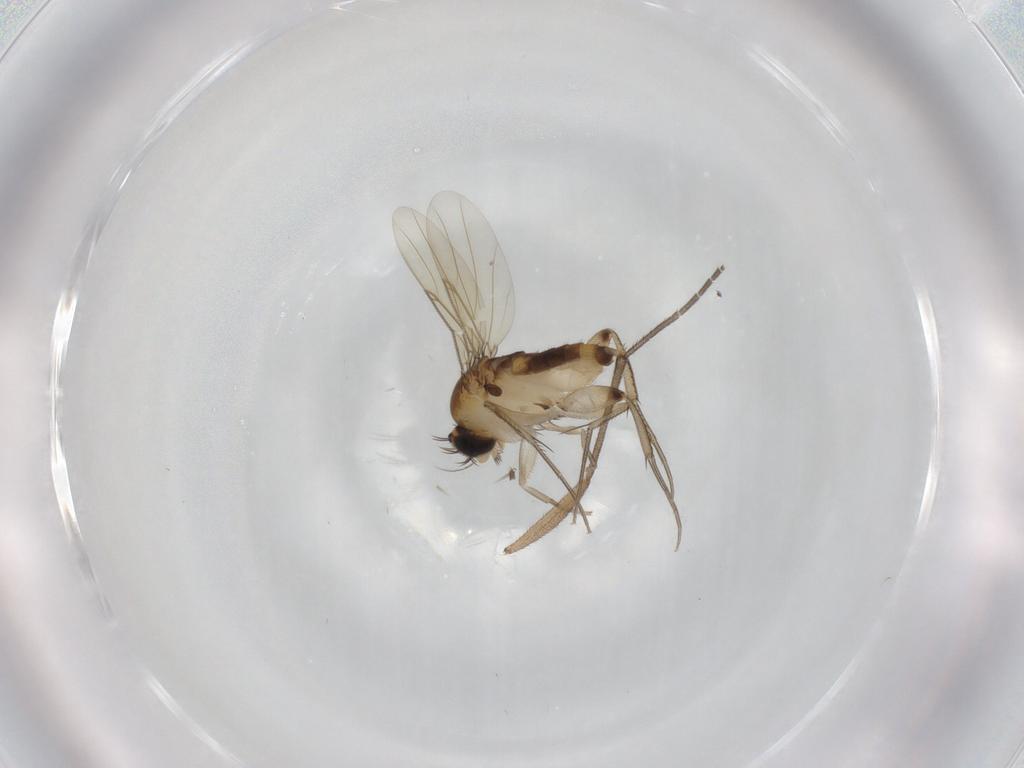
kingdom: Animalia
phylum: Arthropoda
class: Insecta
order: Diptera
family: Sciaridae
